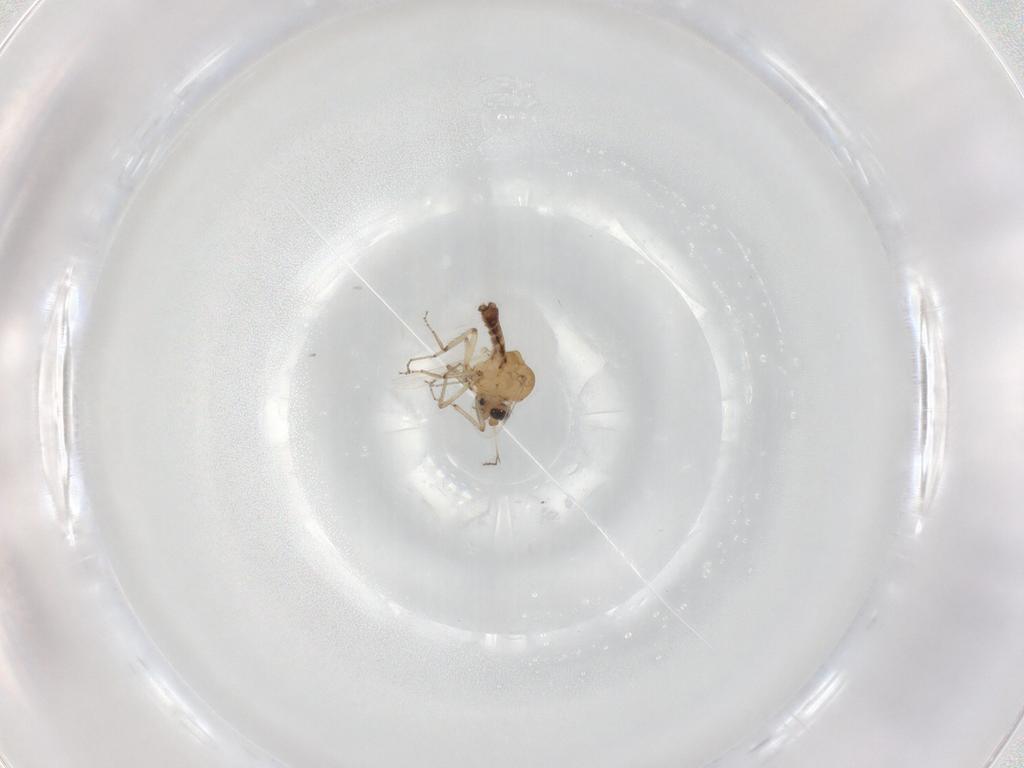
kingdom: Animalia
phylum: Arthropoda
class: Insecta
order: Diptera
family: Ceratopogonidae
